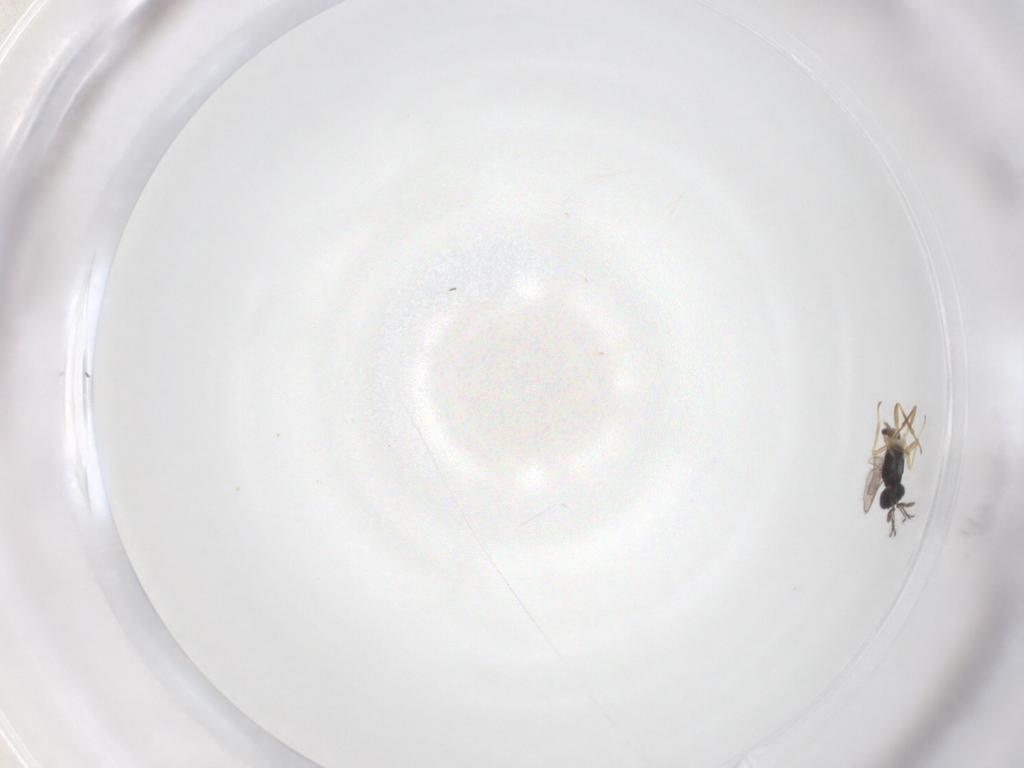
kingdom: Animalia
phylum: Arthropoda
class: Insecta
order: Hymenoptera
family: Eulophidae
